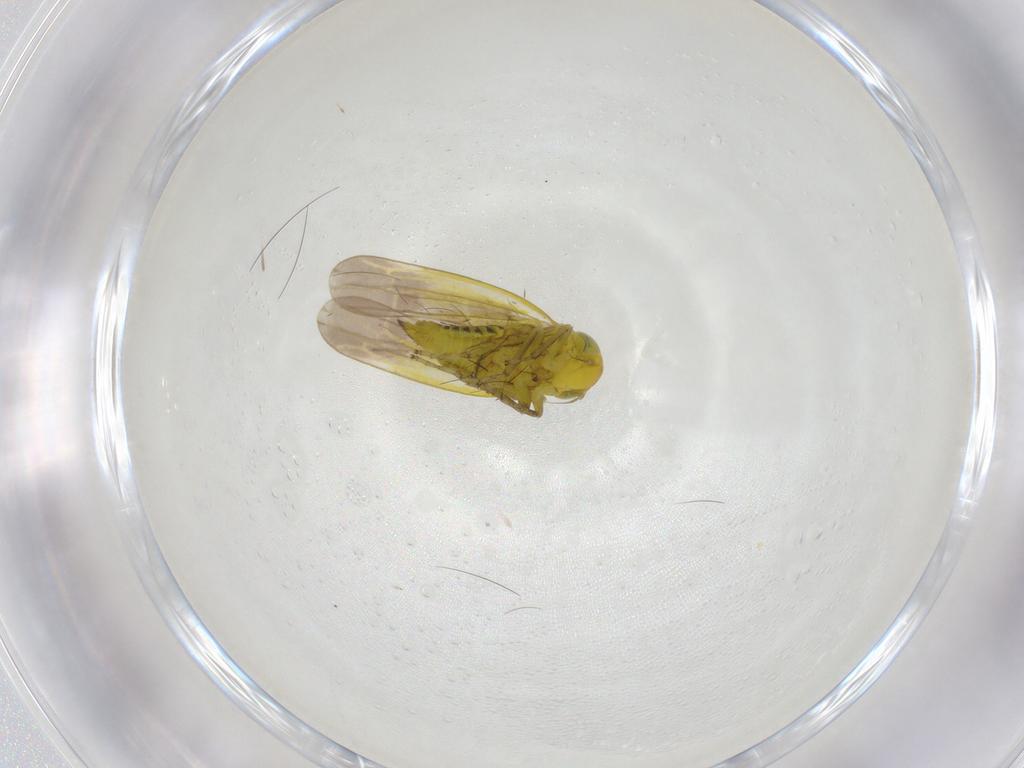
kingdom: Animalia
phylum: Arthropoda
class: Insecta
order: Hemiptera
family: Cicadellidae
